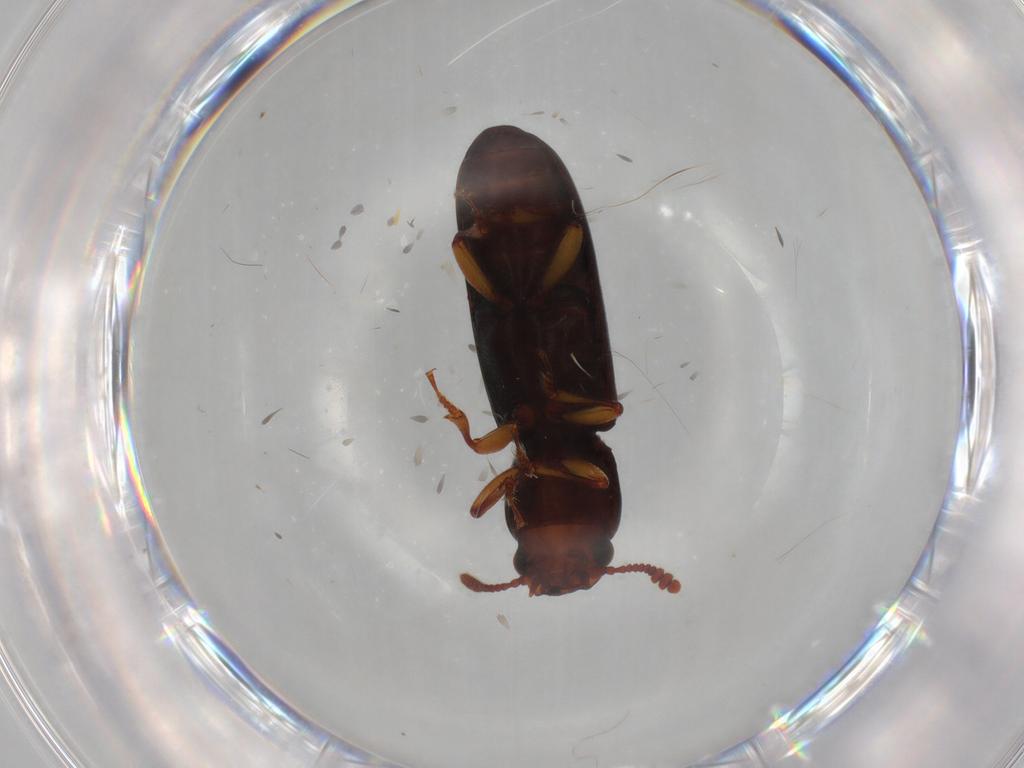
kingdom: Animalia
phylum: Arthropoda
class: Insecta
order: Coleoptera
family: Salpingidae
